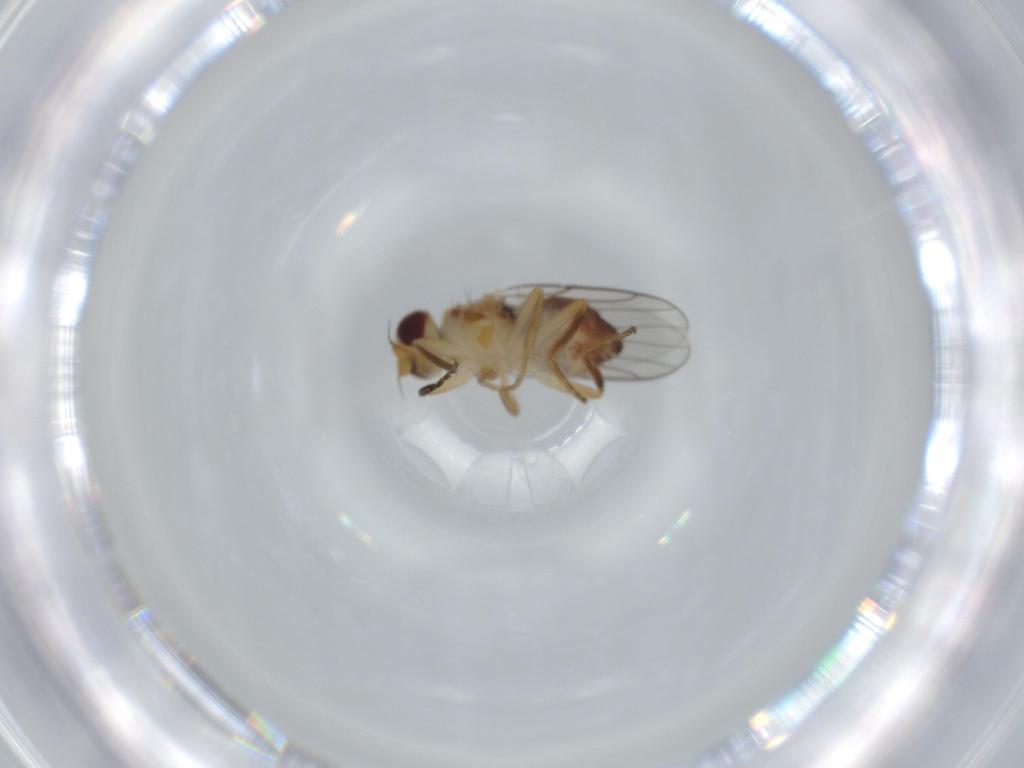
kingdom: Animalia
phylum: Arthropoda
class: Insecta
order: Diptera
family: Chloropidae
